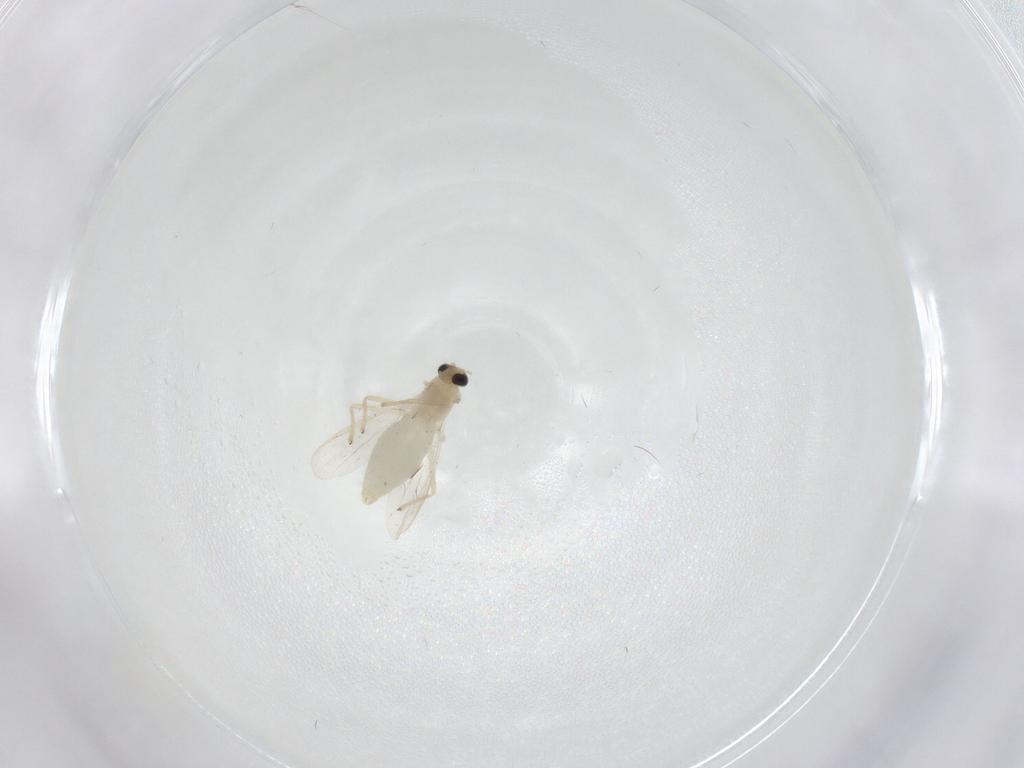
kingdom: Animalia
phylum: Arthropoda
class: Insecta
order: Diptera
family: Chironomidae
